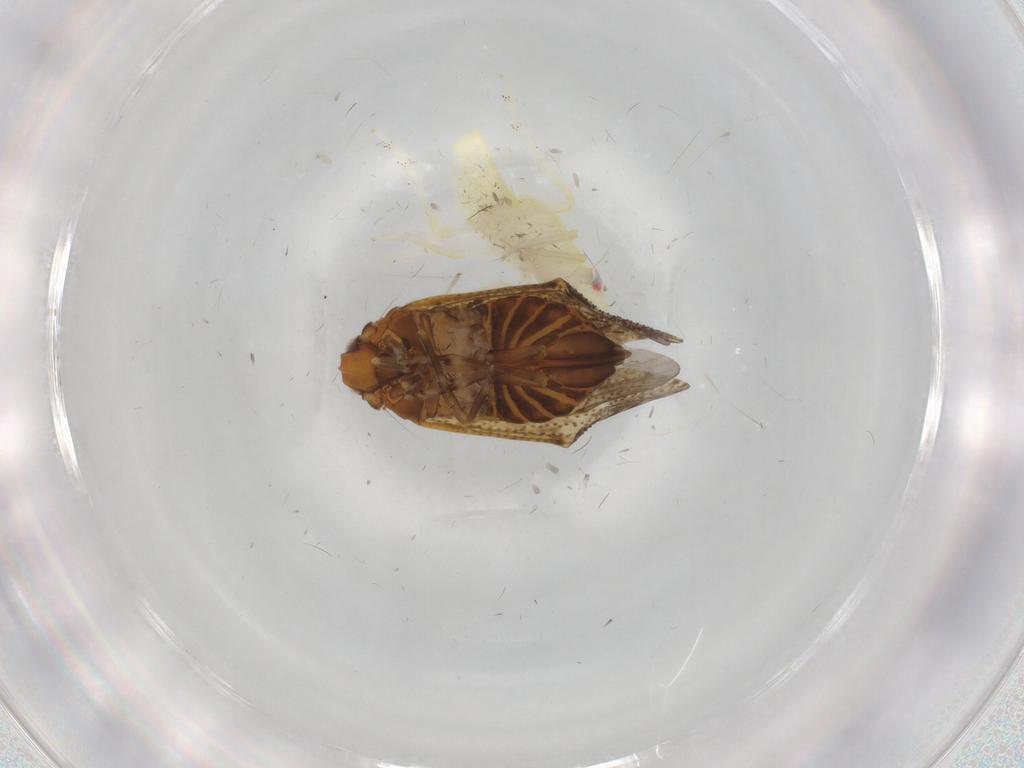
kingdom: Animalia
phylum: Arthropoda
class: Insecta
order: Hemiptera
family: Tropiduchidae
